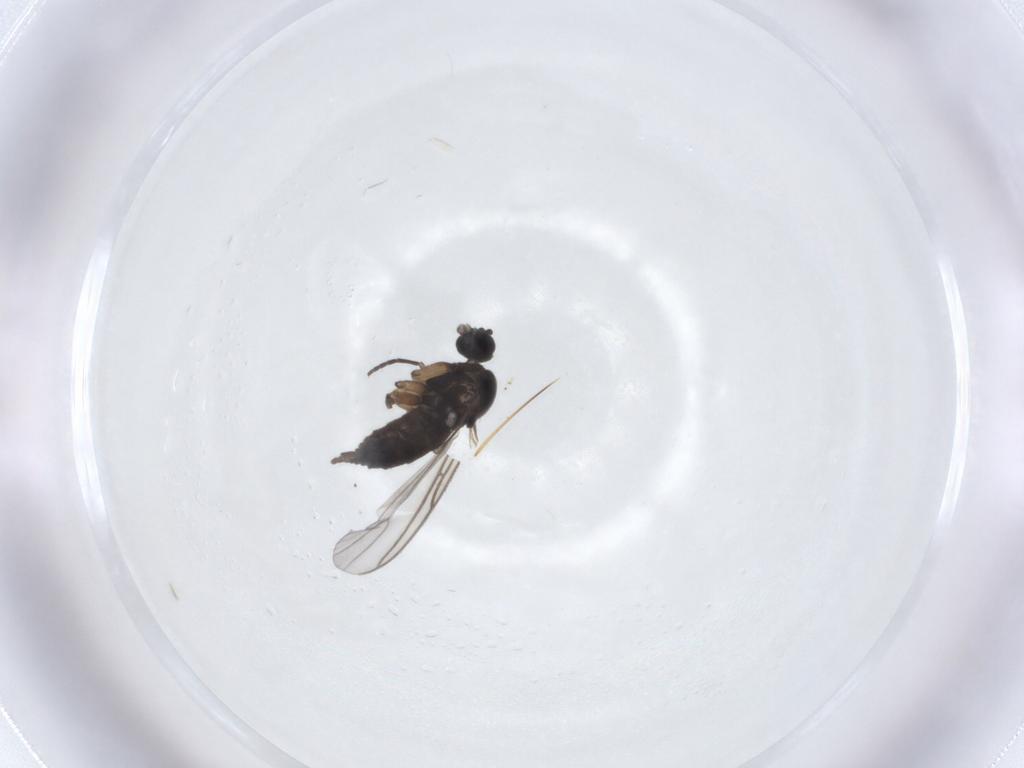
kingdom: Animalia
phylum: Arthropoda
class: Insecta
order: Diptera
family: Sciaridae
